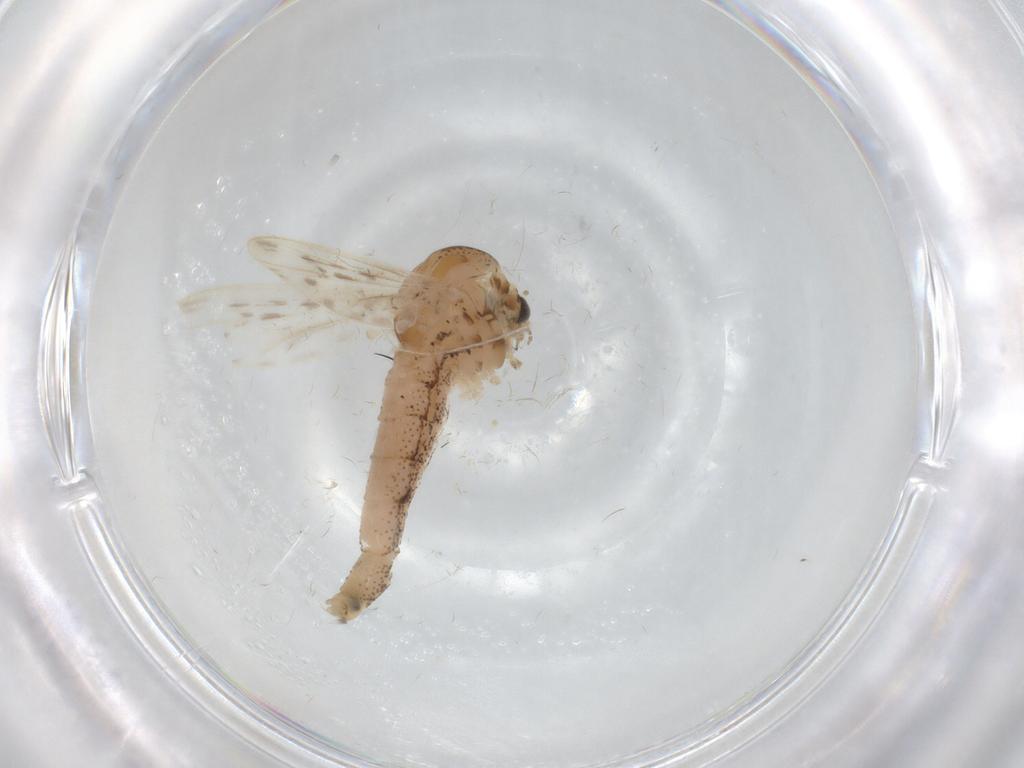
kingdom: Animalia
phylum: Arthropoda
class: Insecta
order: Diptera
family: Chaoboridae
